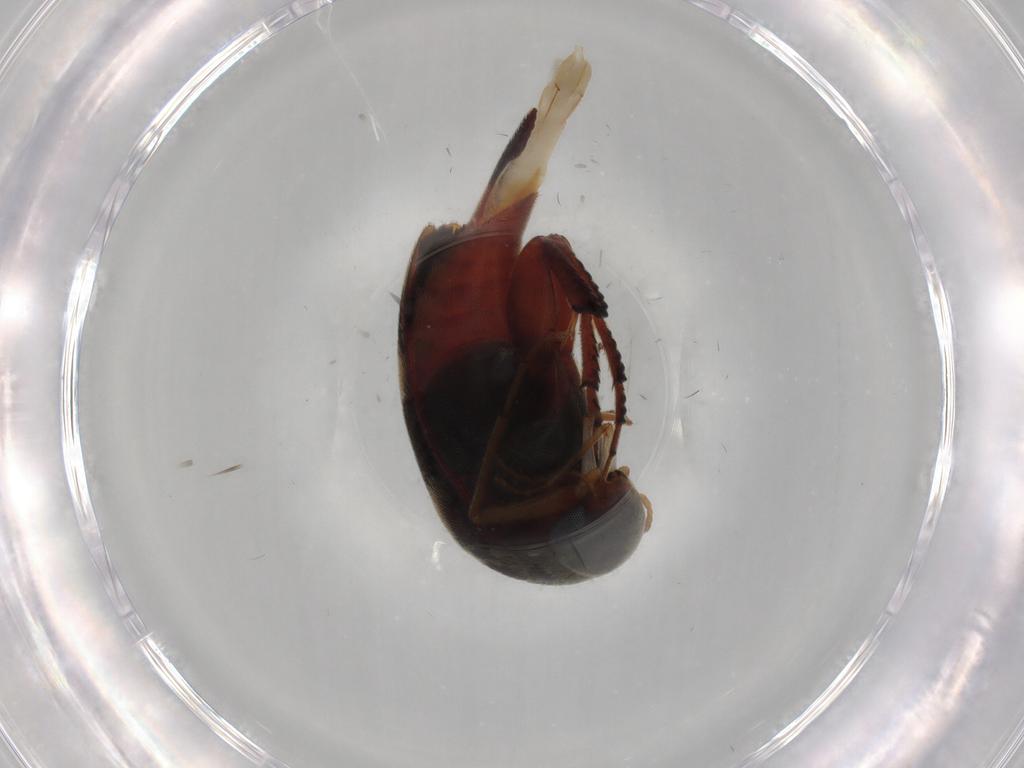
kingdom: Animalia
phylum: Arthropoda
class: Insecta
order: Coleoptera
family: Mordellidae
